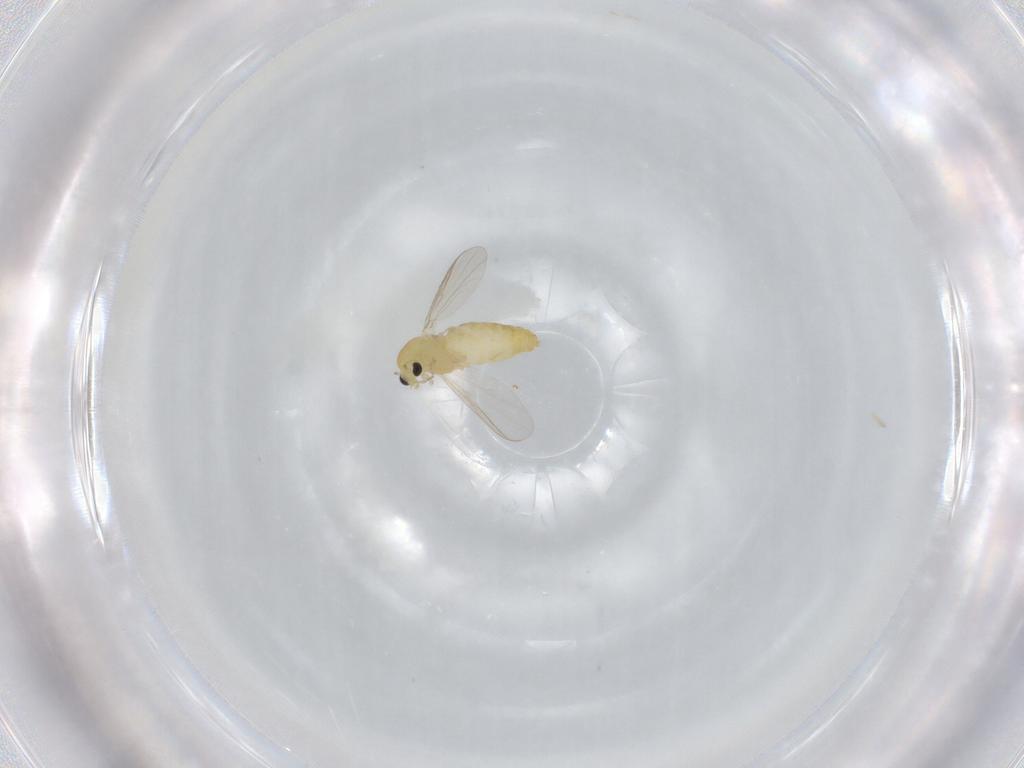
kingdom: Animalia
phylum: Arthropoda
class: Insecta
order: Diptera
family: Chironomidae
